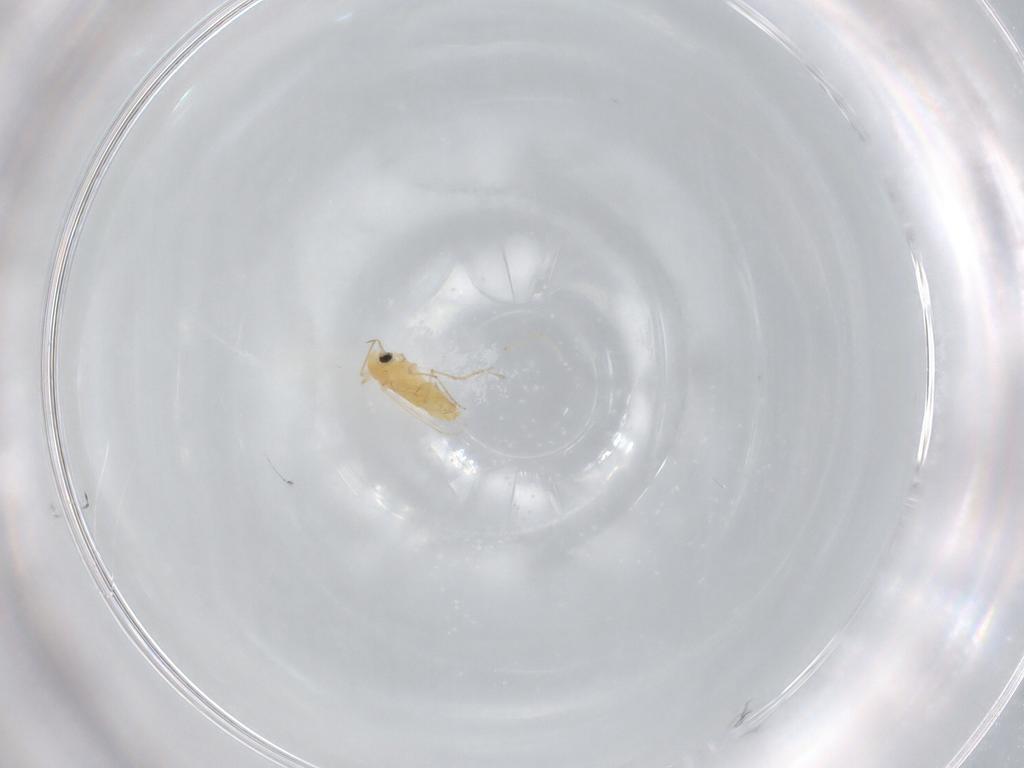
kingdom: Animalia
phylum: Arthropoda
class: Insecta
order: Diptera
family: Chironomidae
